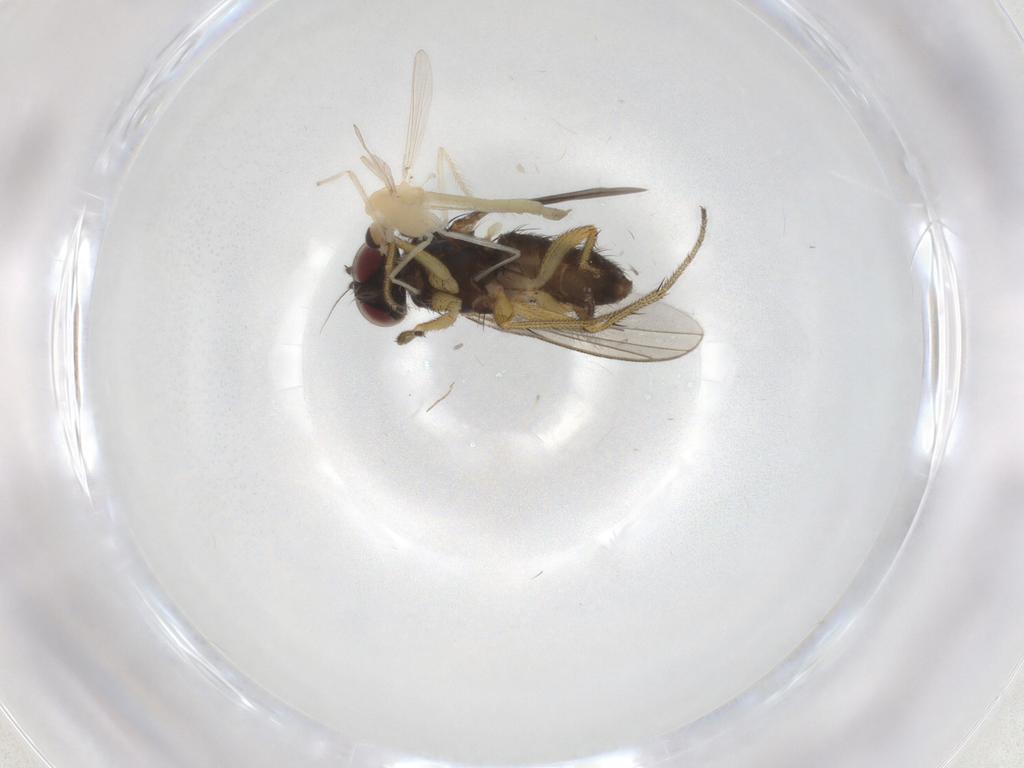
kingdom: Animalia
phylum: Arthropoda
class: Insecta
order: Diptera
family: Chironomidae
